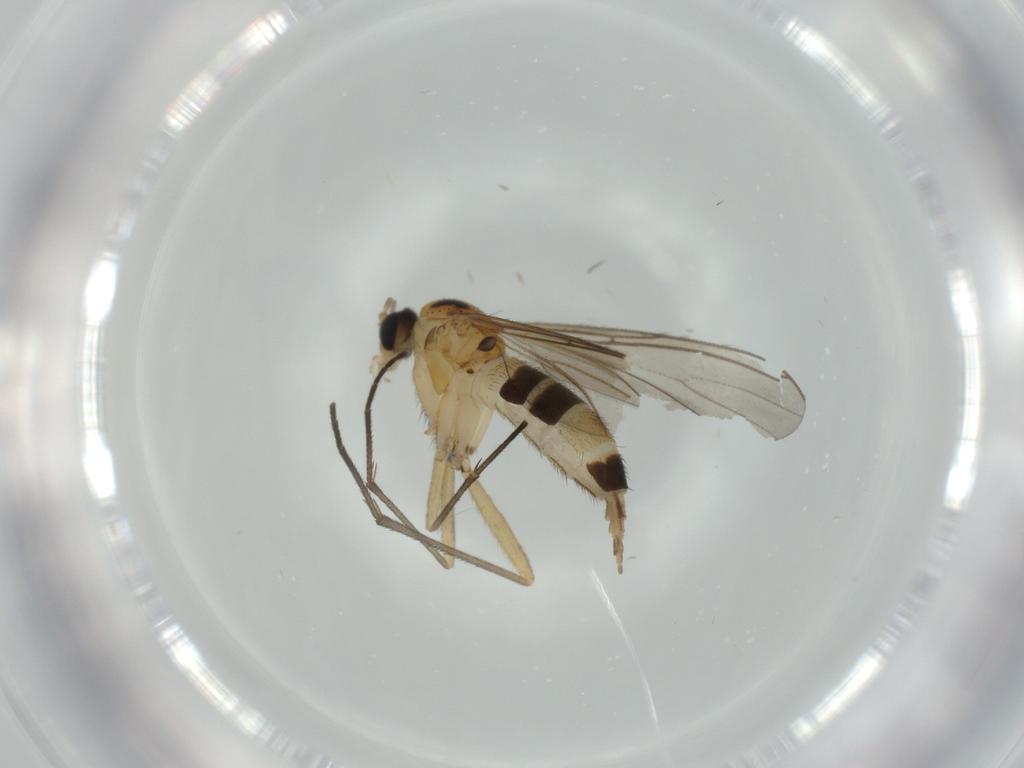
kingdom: Animalia
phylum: Arthropoda
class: Insecta
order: Diptera
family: Sciaridae
